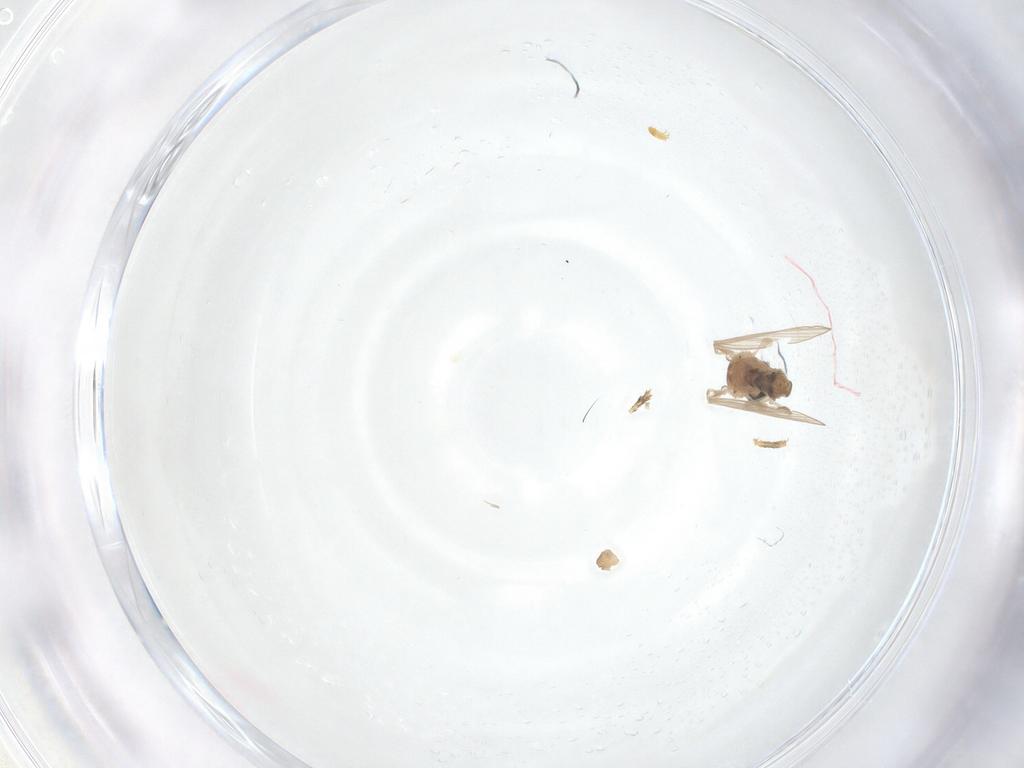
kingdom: Animalia
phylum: Arthropoda
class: Insecta
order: Diptera
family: Psychodidae
